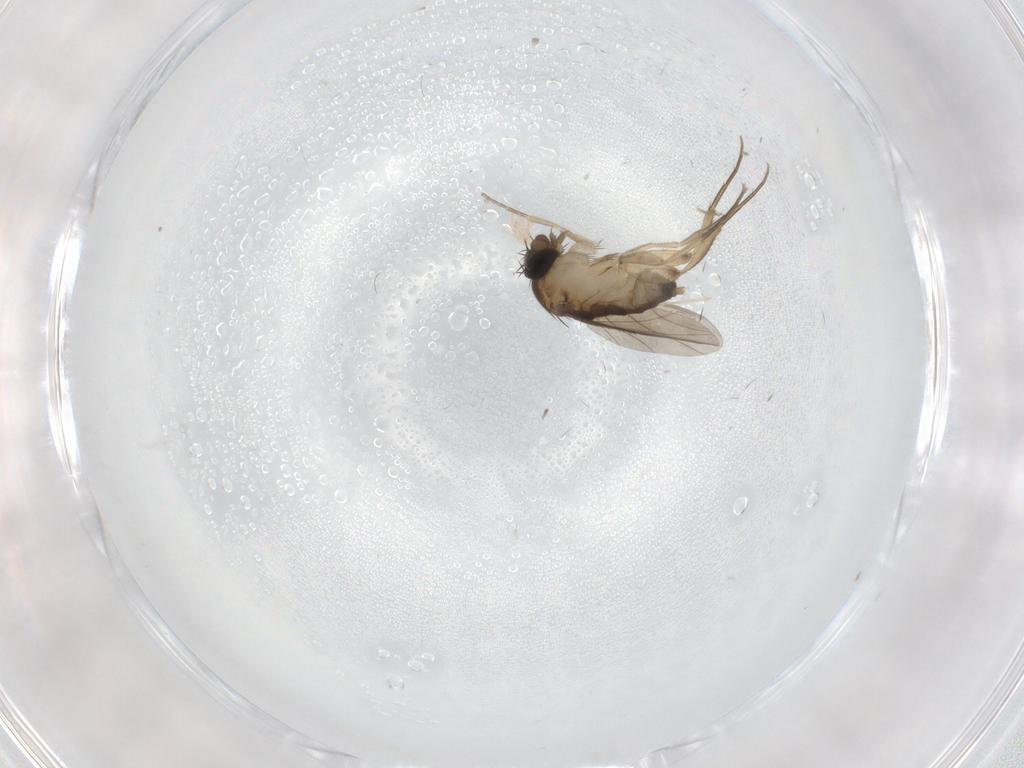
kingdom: Animalia
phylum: Arthropoda
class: Insecta
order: Diptera
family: Phoridae
